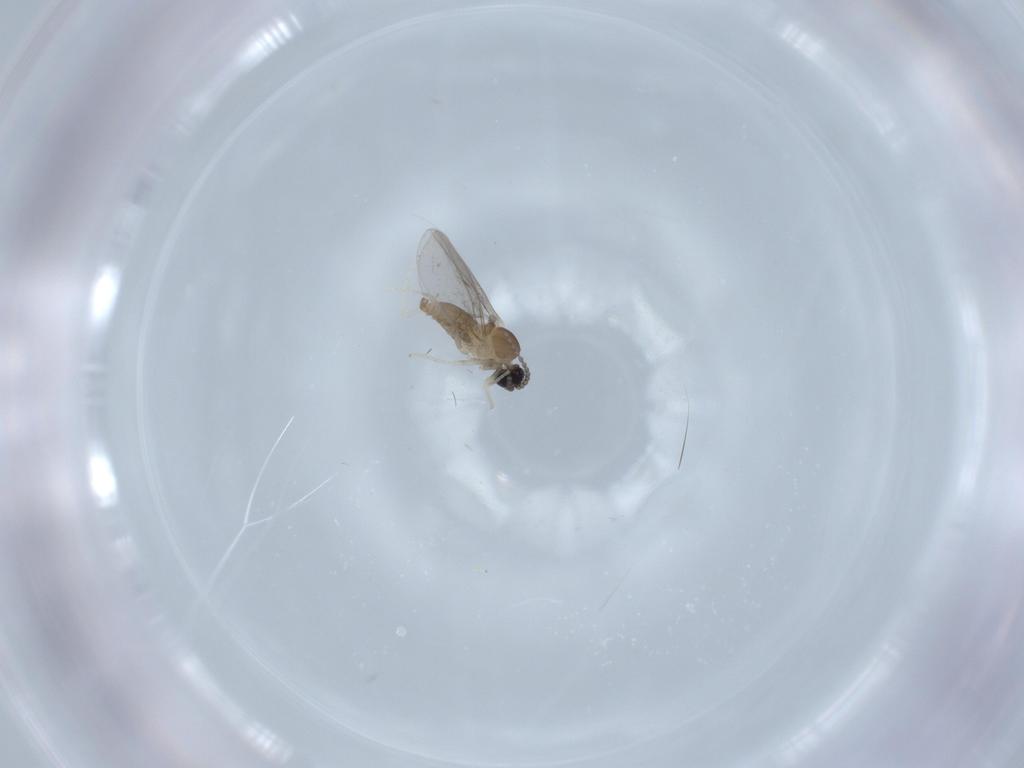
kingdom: Animalia
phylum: Arthropoda
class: Insecta
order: Diptera
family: Cecidomyiidae
